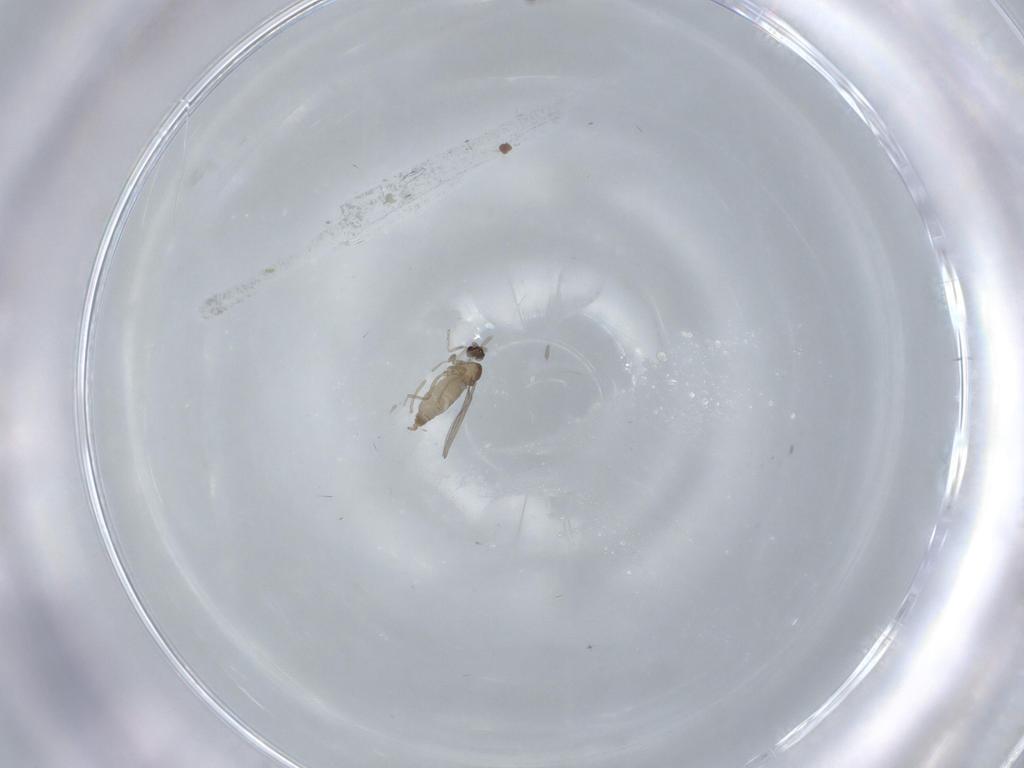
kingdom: Animalia
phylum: Arthropoda
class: Insecta
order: Diptera
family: Cecidomyiidae
